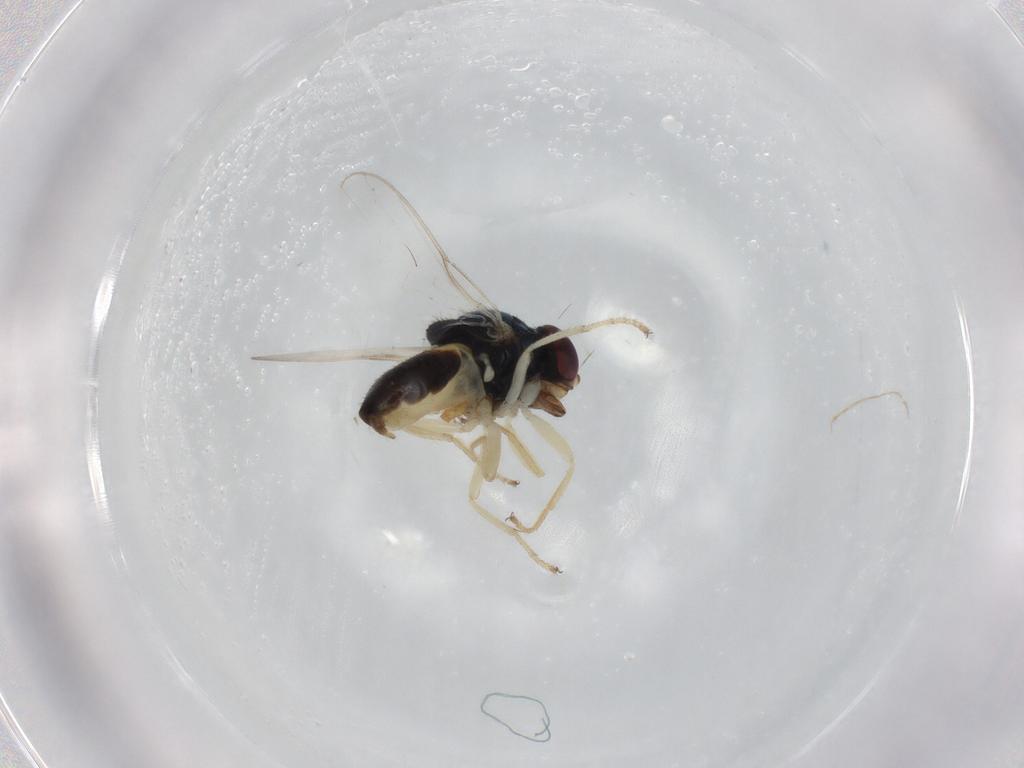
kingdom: Animalia
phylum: Arthropoda
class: Insecta
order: Diptera
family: Chloropidae
